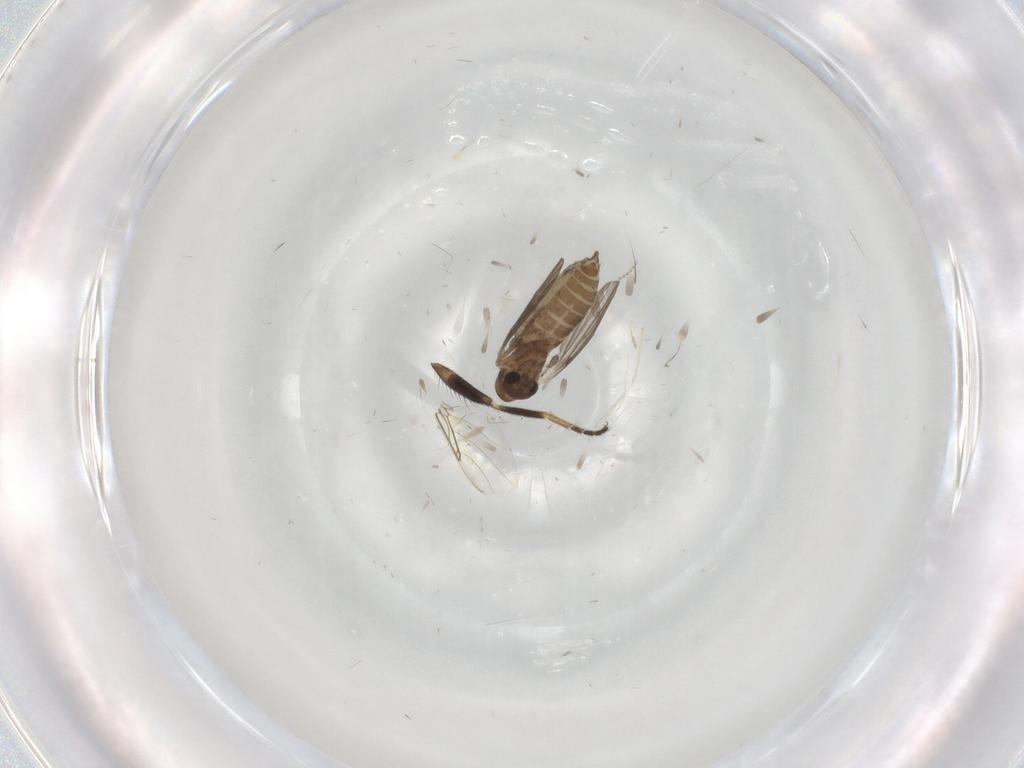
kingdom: Animalia
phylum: Arthropoda
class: Insecta
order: Diptera
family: Milichiidae
